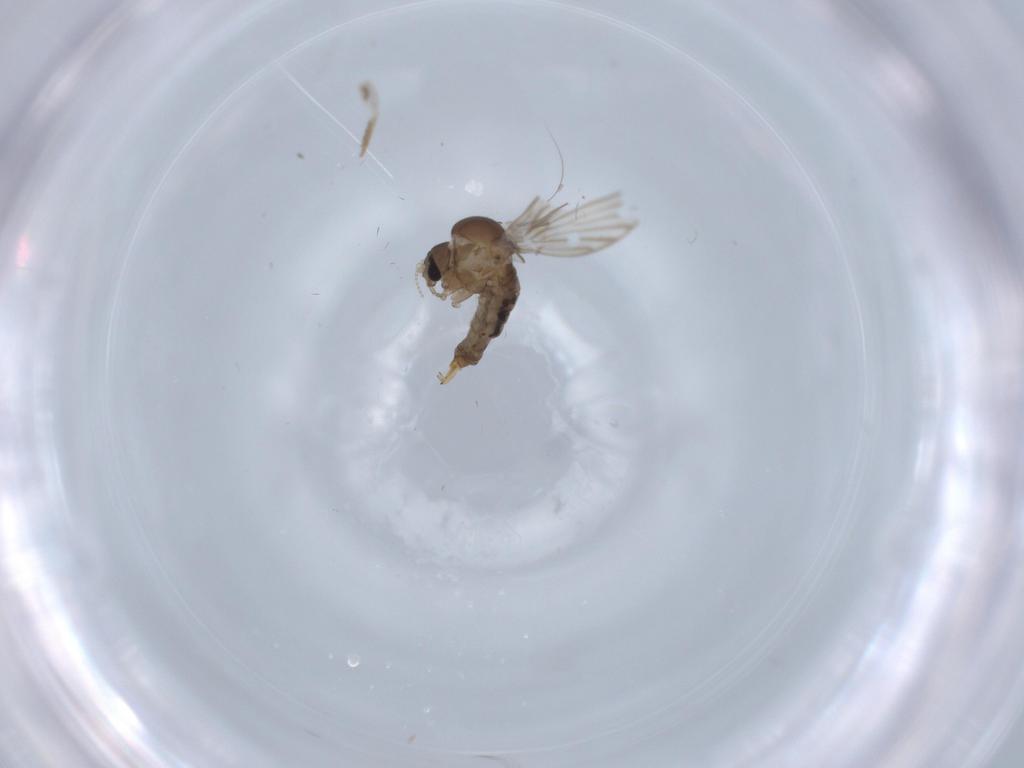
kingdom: Animalia
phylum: Arthropoda
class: Insecta
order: Diptera
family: Psychodidae
